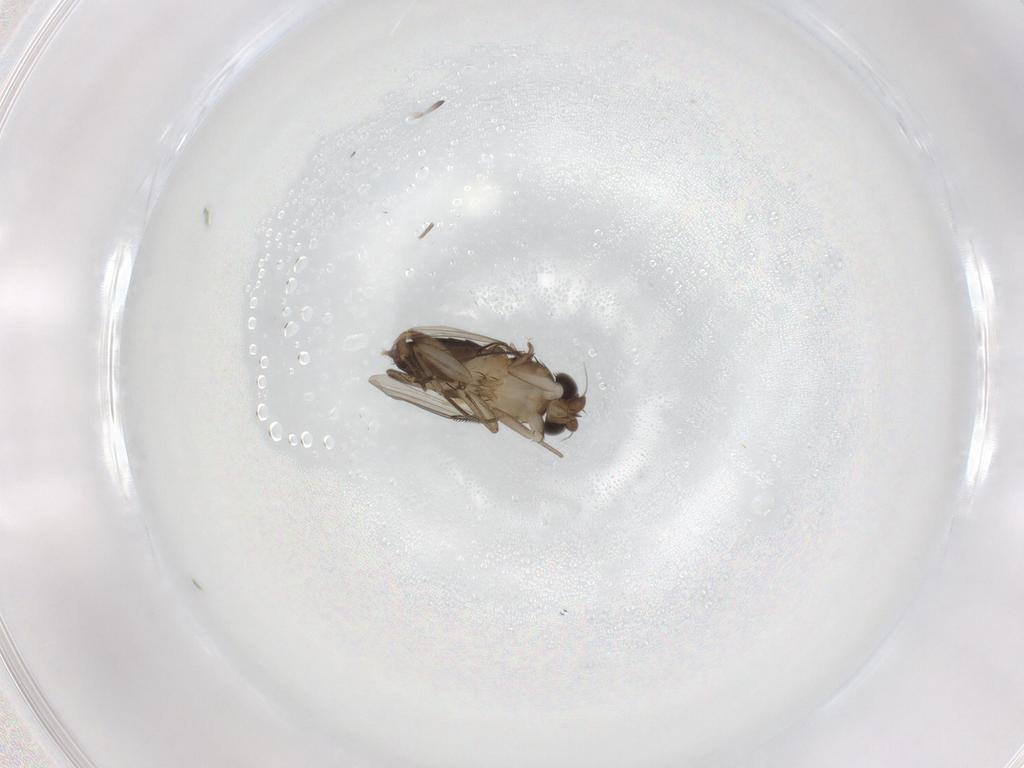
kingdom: Animalia
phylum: Arthropoda
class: Insecta
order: Diptera
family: Phoridae
